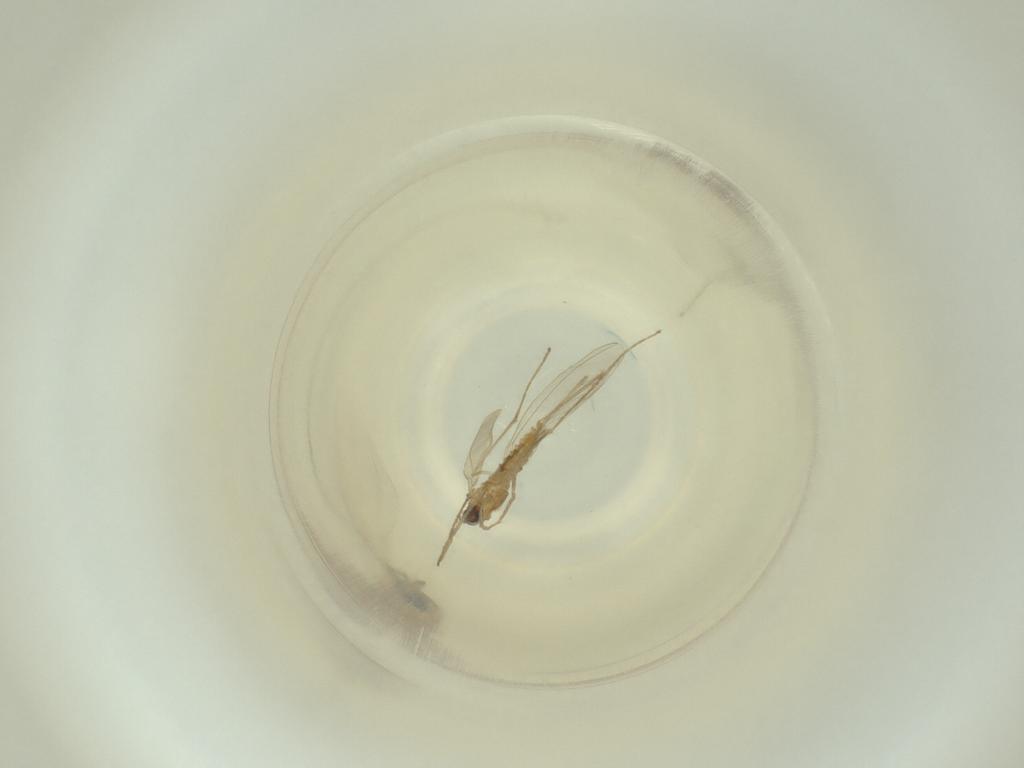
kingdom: Animalia
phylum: Arthropoda
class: Insecta
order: Diptera
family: Cecidomyiidae
